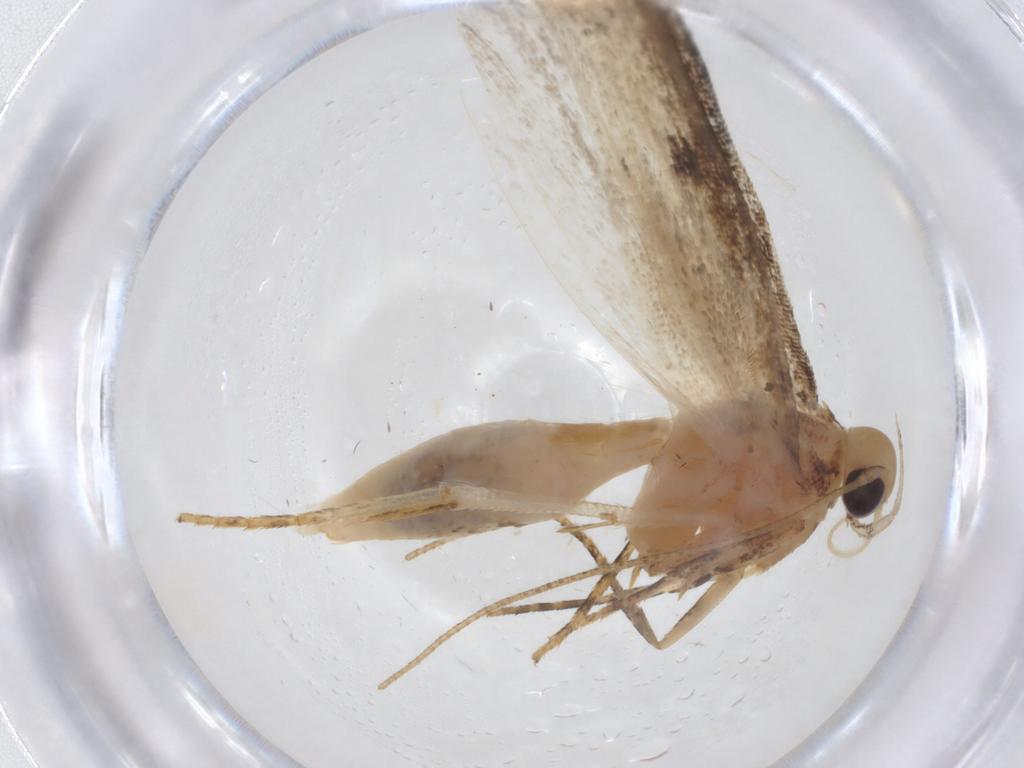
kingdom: Animalia
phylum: Arthropoda
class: Insecta
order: Lepidoptera
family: Gelechiidae
